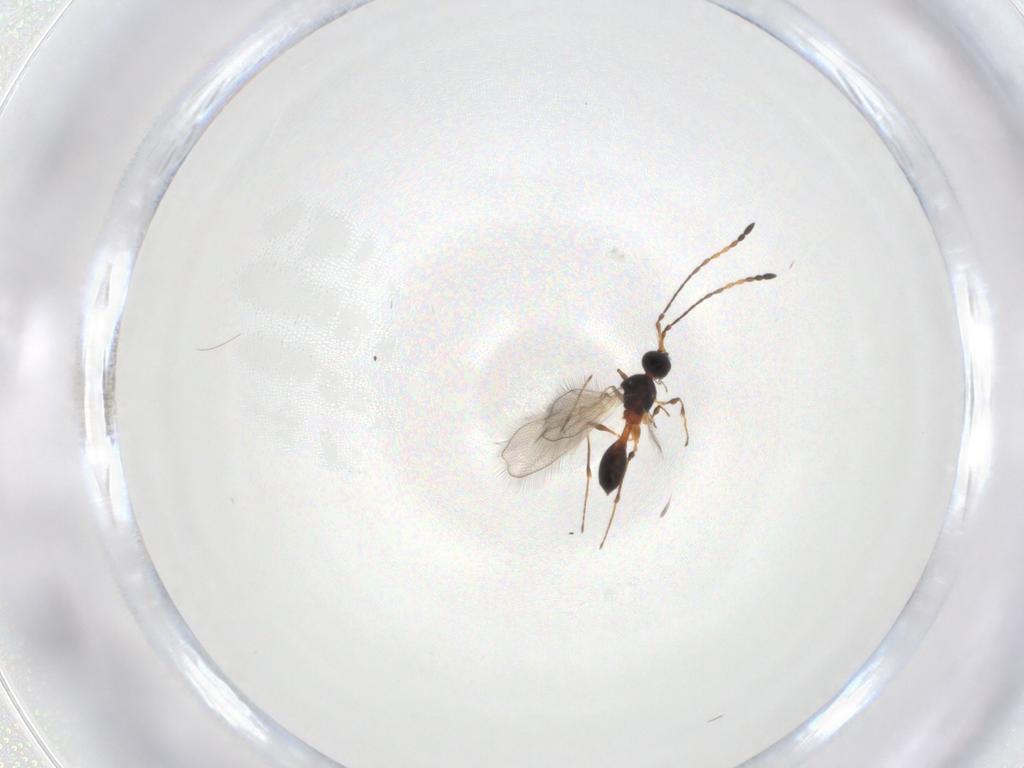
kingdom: Animalia
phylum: Arthropoda
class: Insecta
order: Hymenoptera
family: Diapriidae
